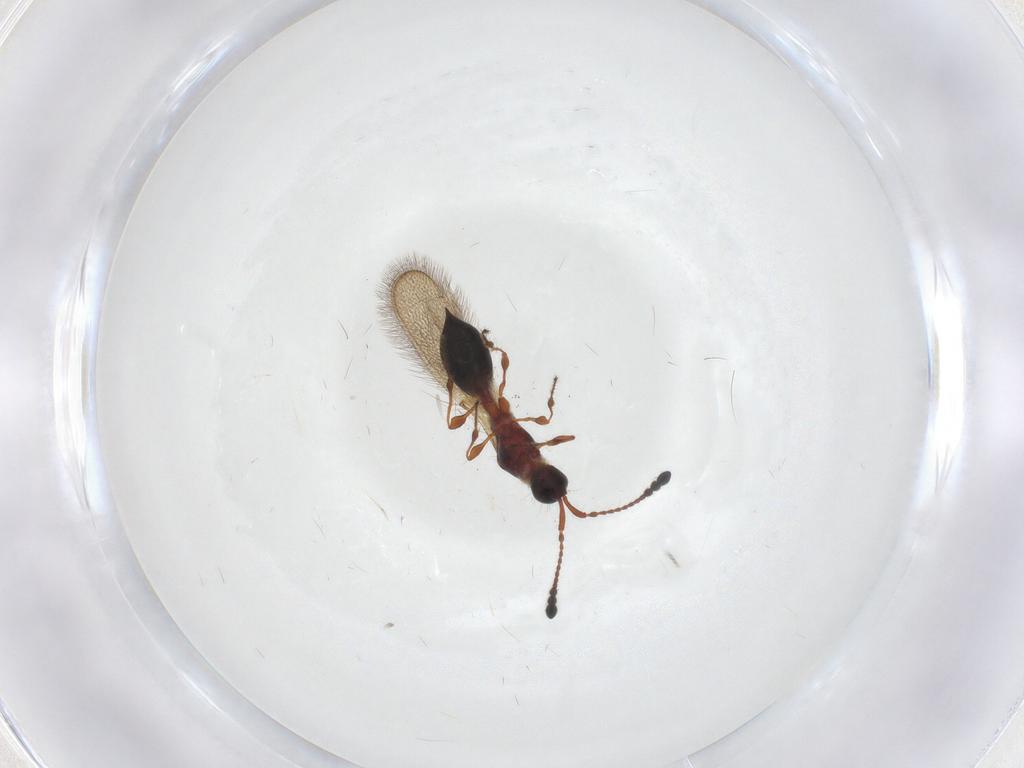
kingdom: Animalia
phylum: Arthropoda
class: Insecta
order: Hymenoptera
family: Diapriidae
